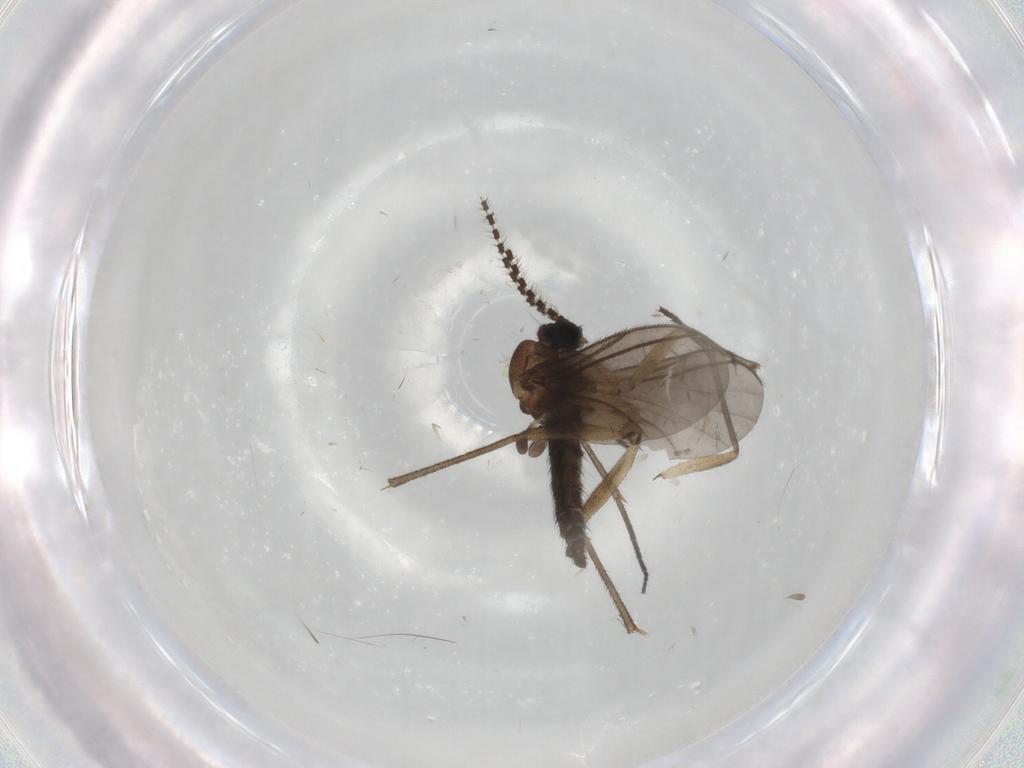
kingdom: Animalia
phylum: Arthropoda
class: Insecta
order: Diptera
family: Sciaridae
